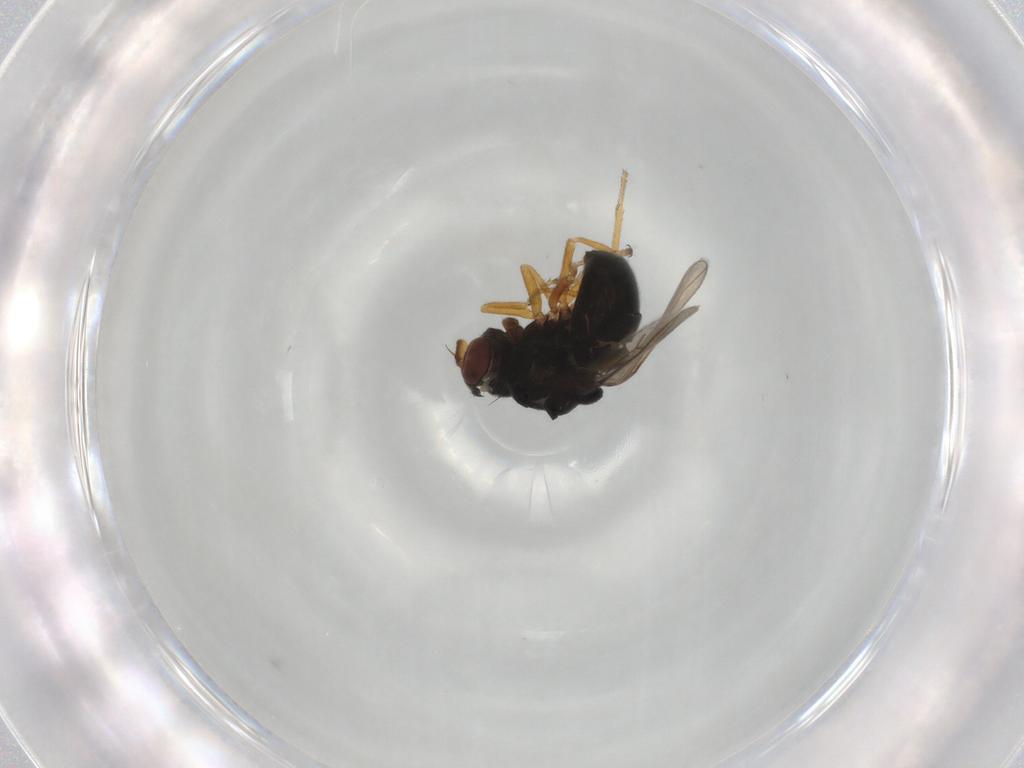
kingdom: Animalia
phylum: Arthropoda
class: Insecta
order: Diptera
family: Ephydridae
